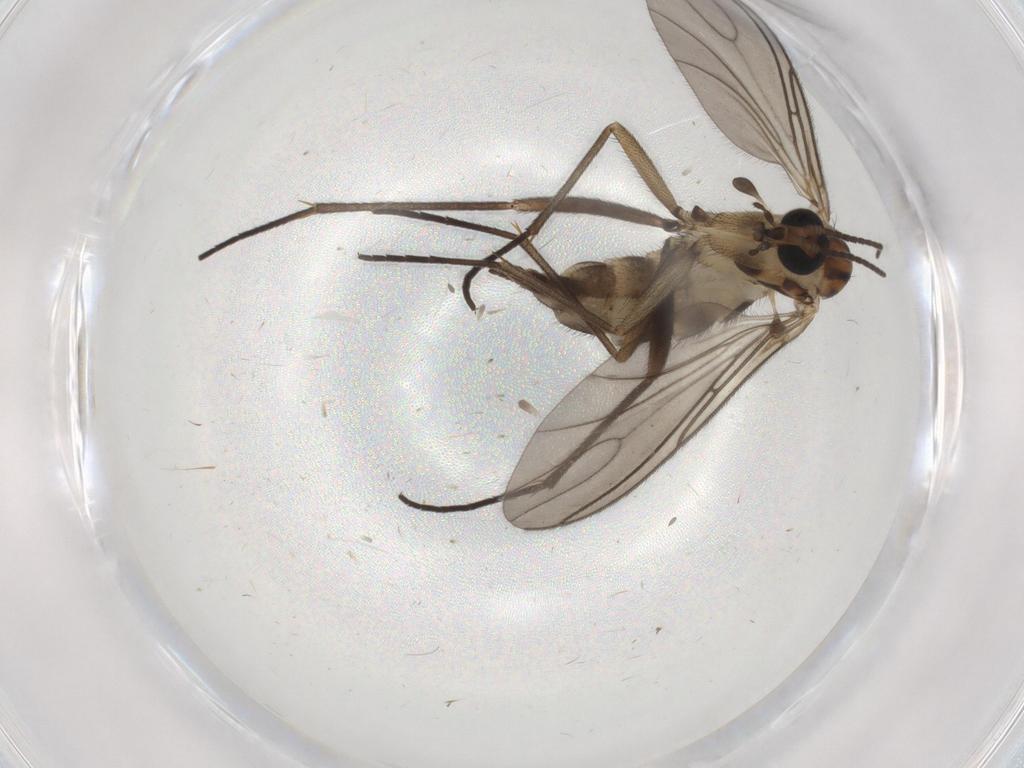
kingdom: Animalia
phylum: Arthropoda
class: Insecta
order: Diptera
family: Sciaridae
